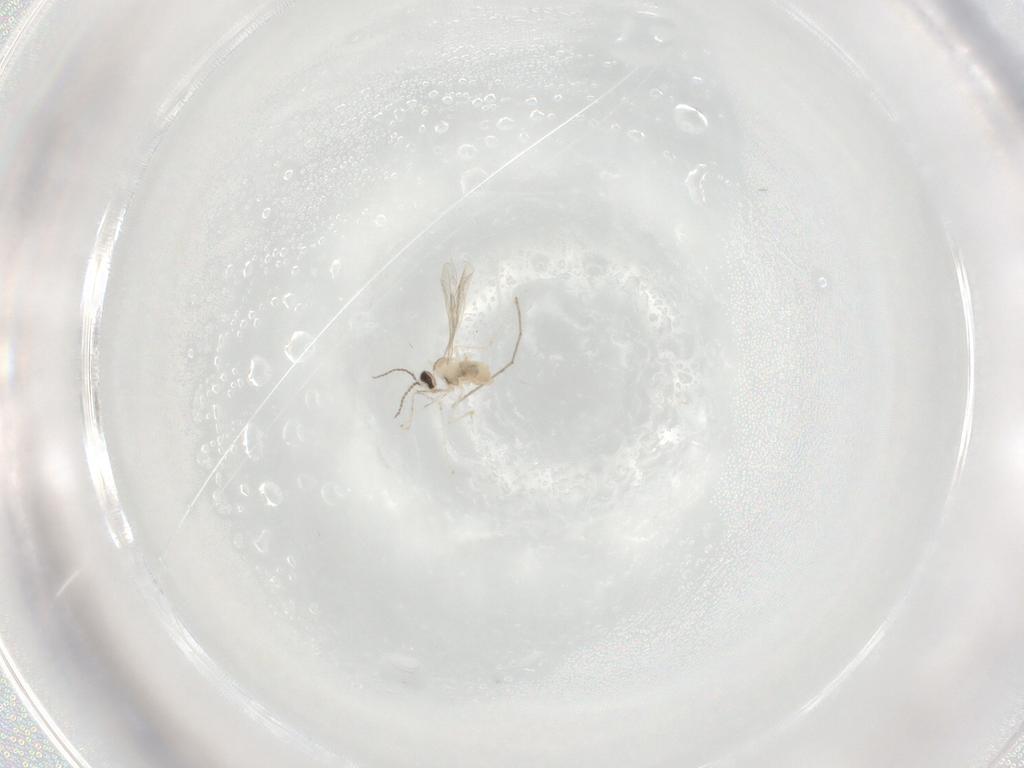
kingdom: Animalia
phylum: Arthropoda
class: Insecta
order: Diptera
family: Cecidomyiidae
